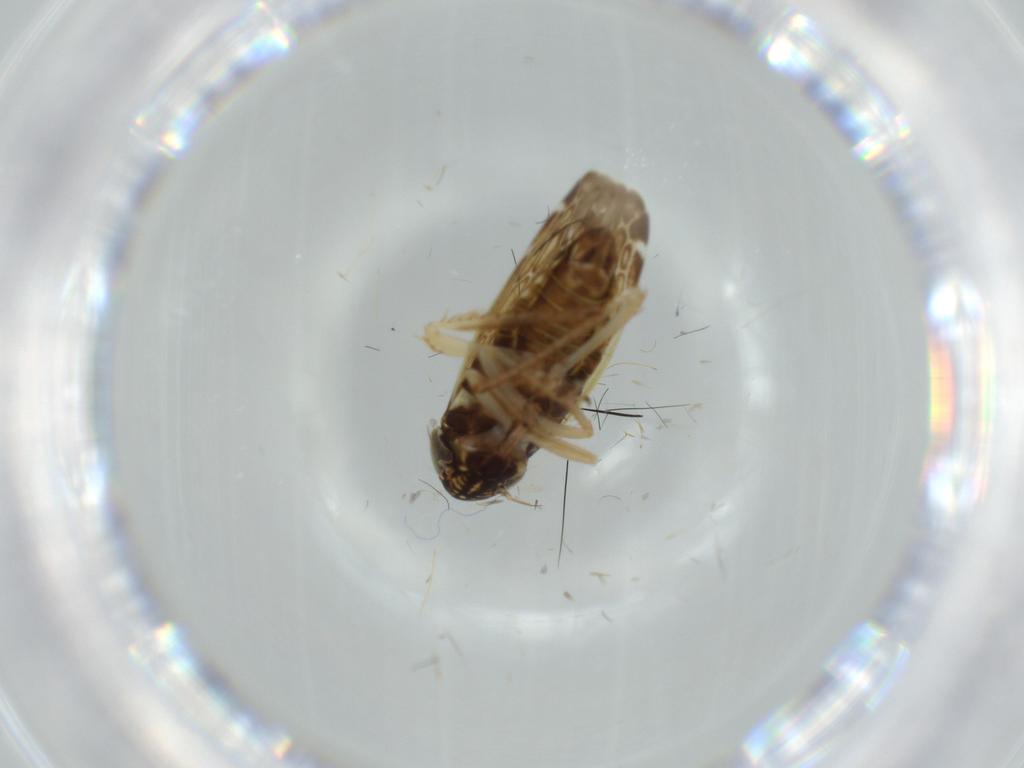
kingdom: Animalia
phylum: Arthropoda
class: Insecta
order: Hemiptera
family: Cicadellidae
